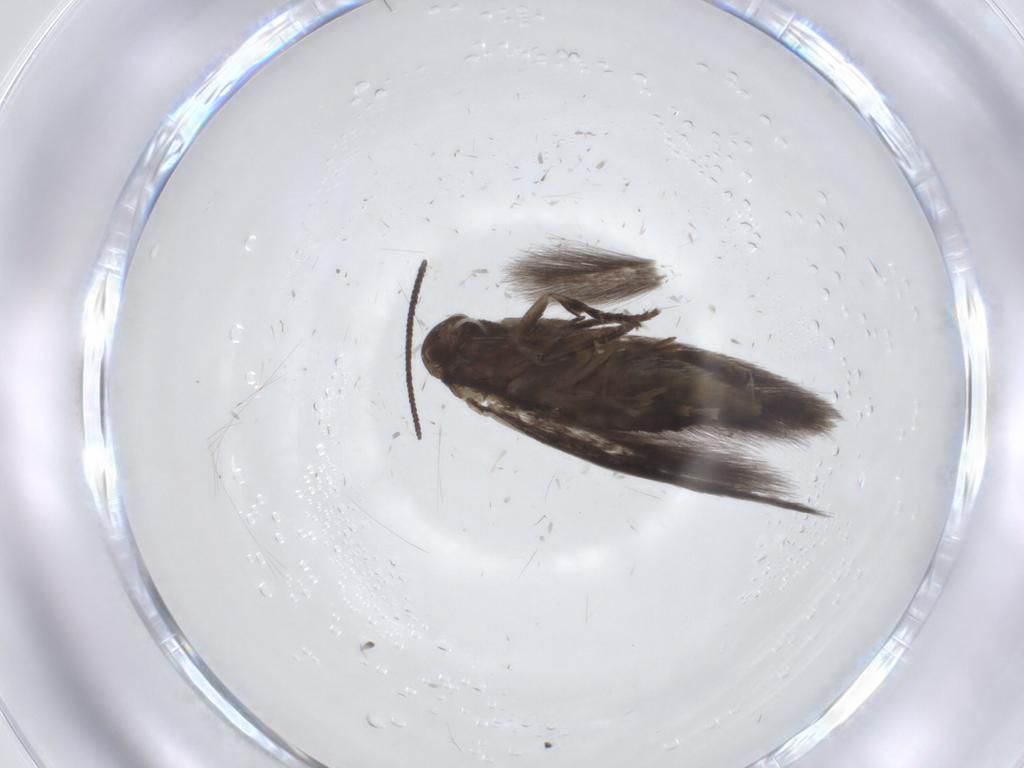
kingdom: Animalia
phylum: Arthropoda
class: Insecta
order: Lepidoptera
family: Elachistidae
